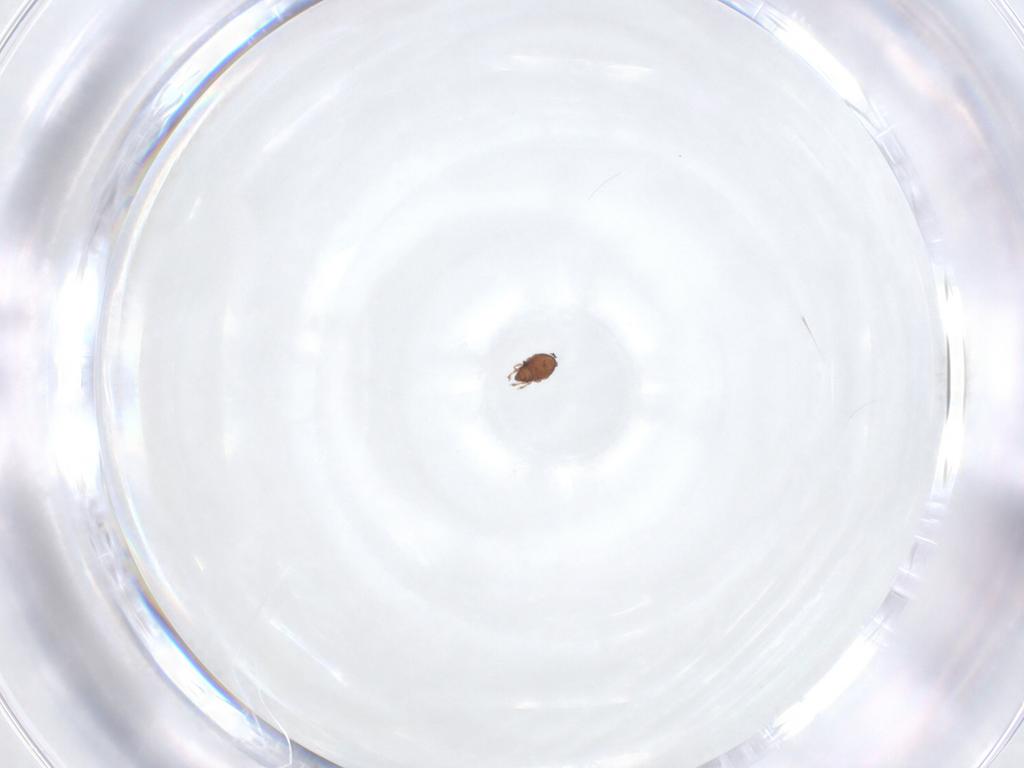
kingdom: Animalia
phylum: Arthropoda
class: Arachnida
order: Sarcoptiformes
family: Dendroeremaeidae
